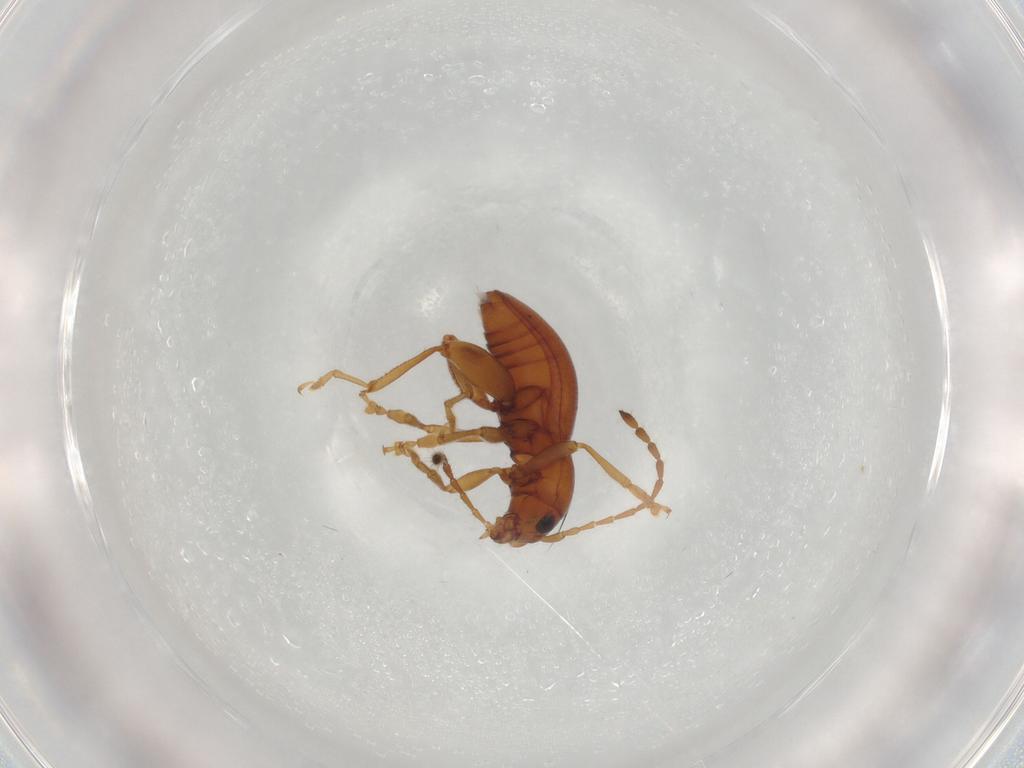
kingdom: Animalia
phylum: Arthropoda
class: Insecta
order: Coleoptera
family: Chrysomelidae
